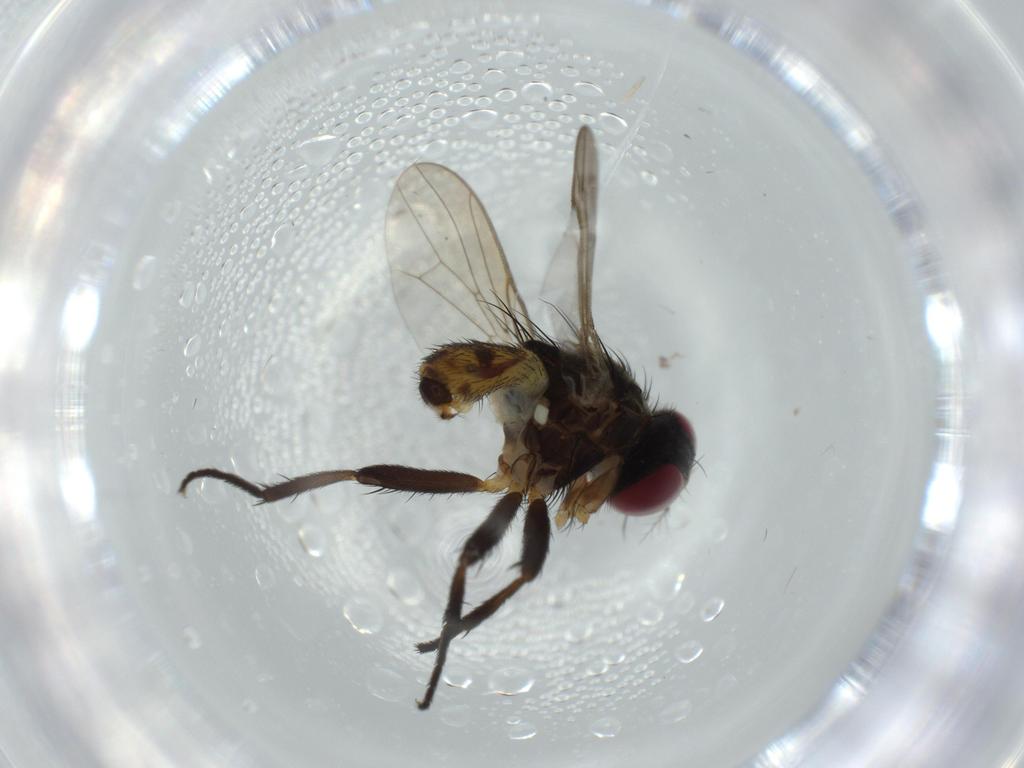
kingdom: Animalia
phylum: Arthropoda
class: Insecta
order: Diptera
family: Anthomyiidae
